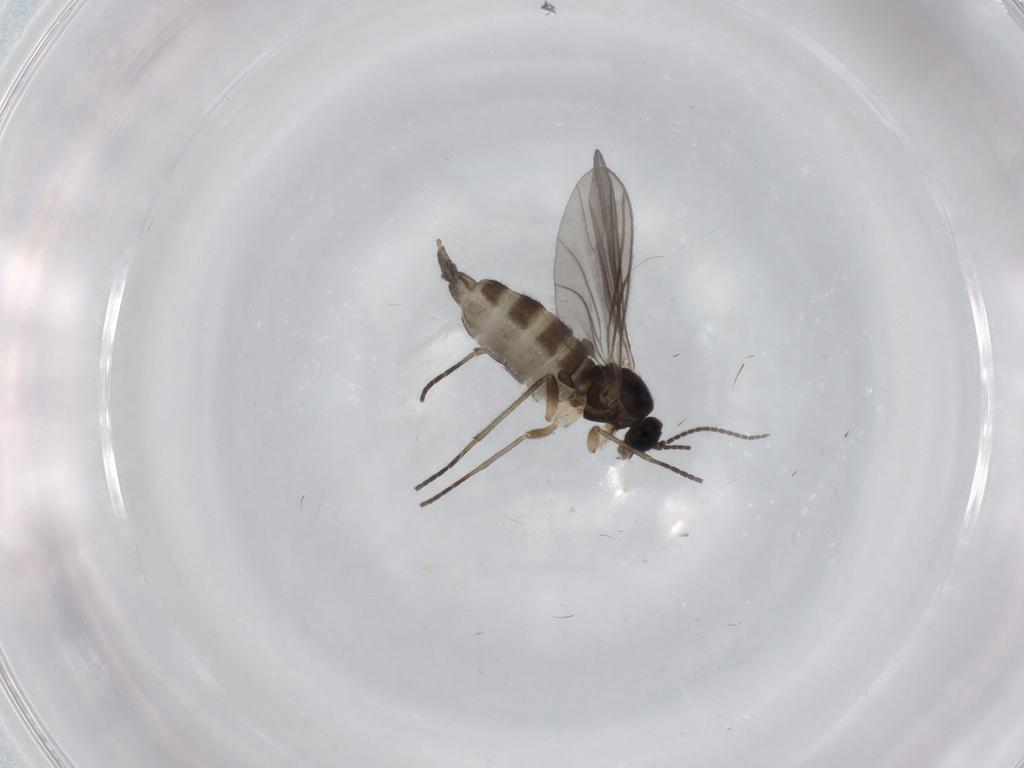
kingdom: Animalia
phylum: Arthropoda
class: Insecta
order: Diptera
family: Sciaridae
